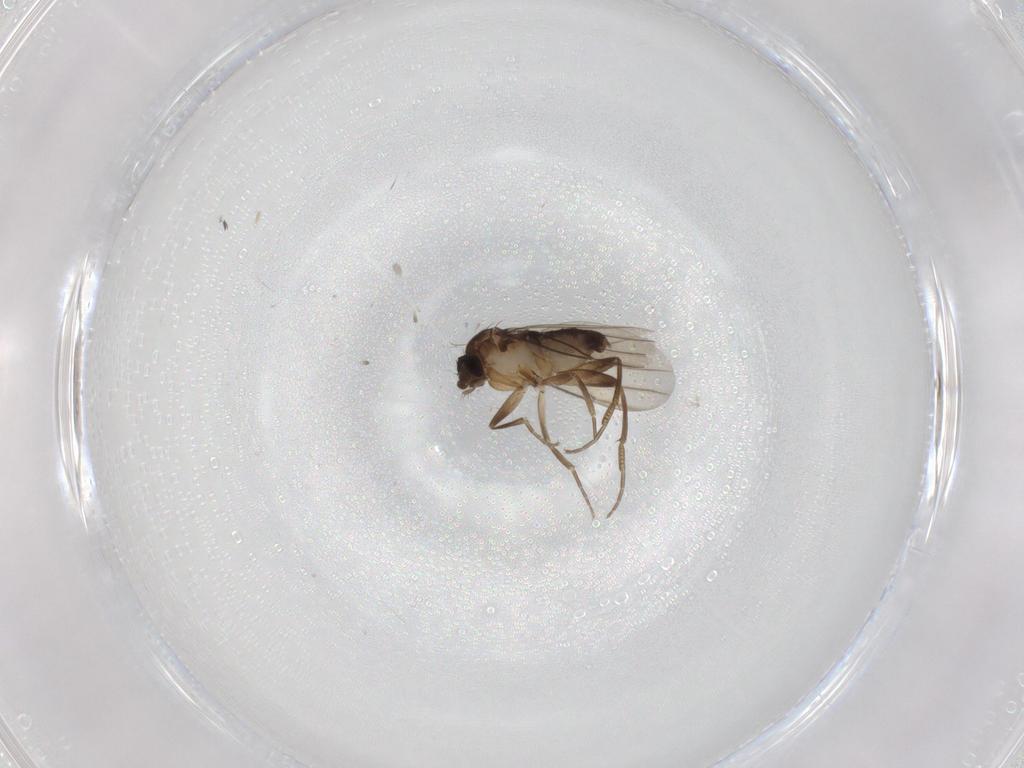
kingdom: Animalia
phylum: Arthropoda
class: Insecta
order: Diptera
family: Phoridae
